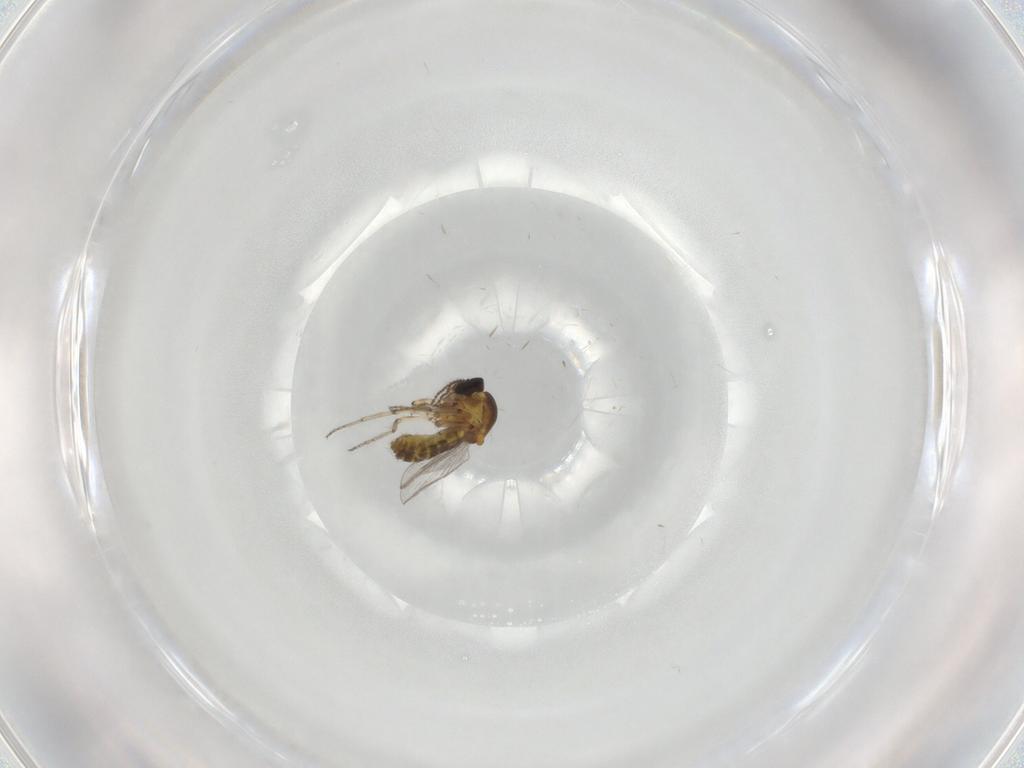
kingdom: Animalia
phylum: Arthropoda
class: Insecta
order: Diptera
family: Ceratopogonidae
